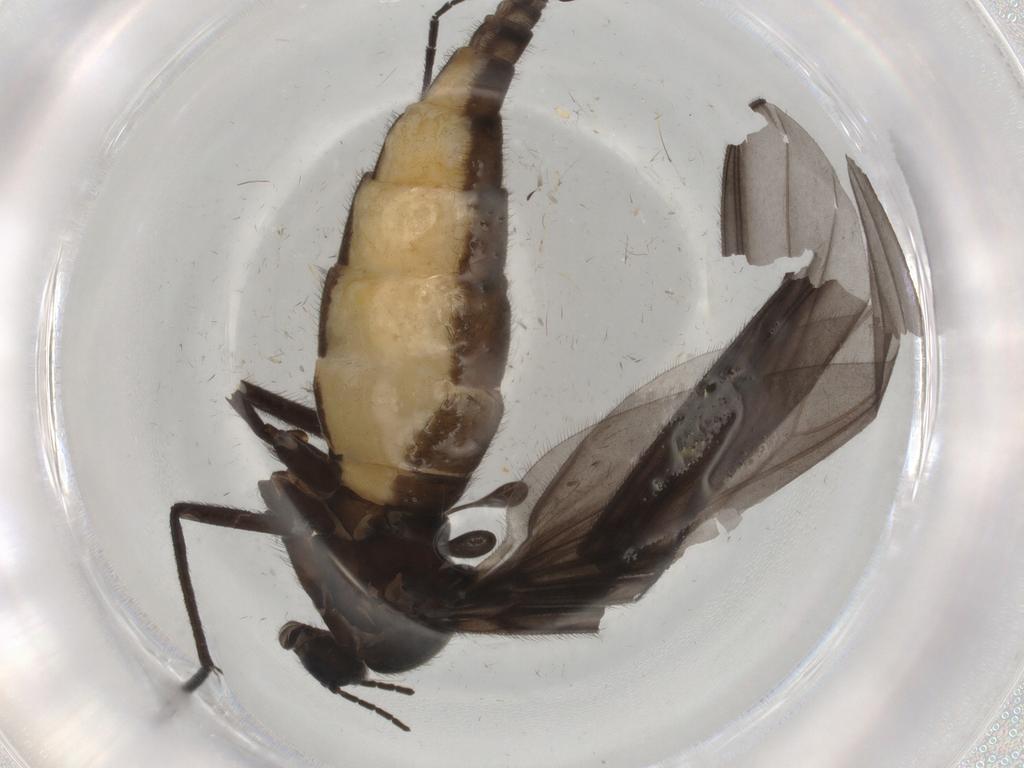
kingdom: Animalia
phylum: Arthropoda
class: Insecta
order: Diptera
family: Sciaridae
